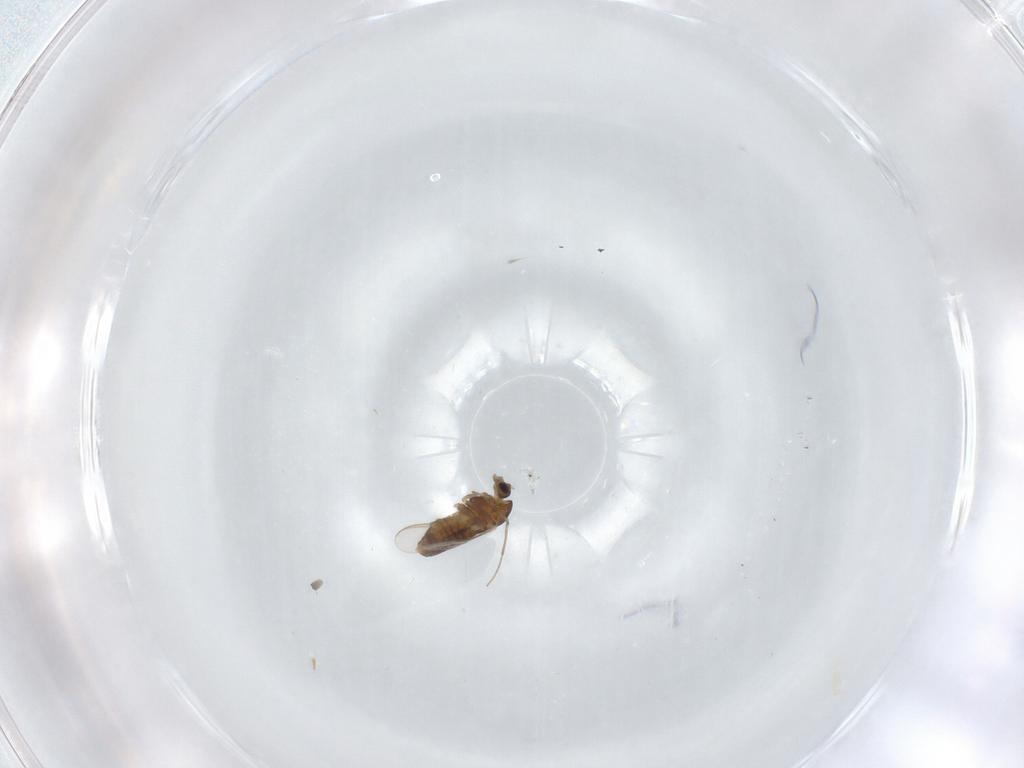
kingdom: Animalia
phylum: Arthropoda
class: Insecta
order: Diptera
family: Chironomidae
